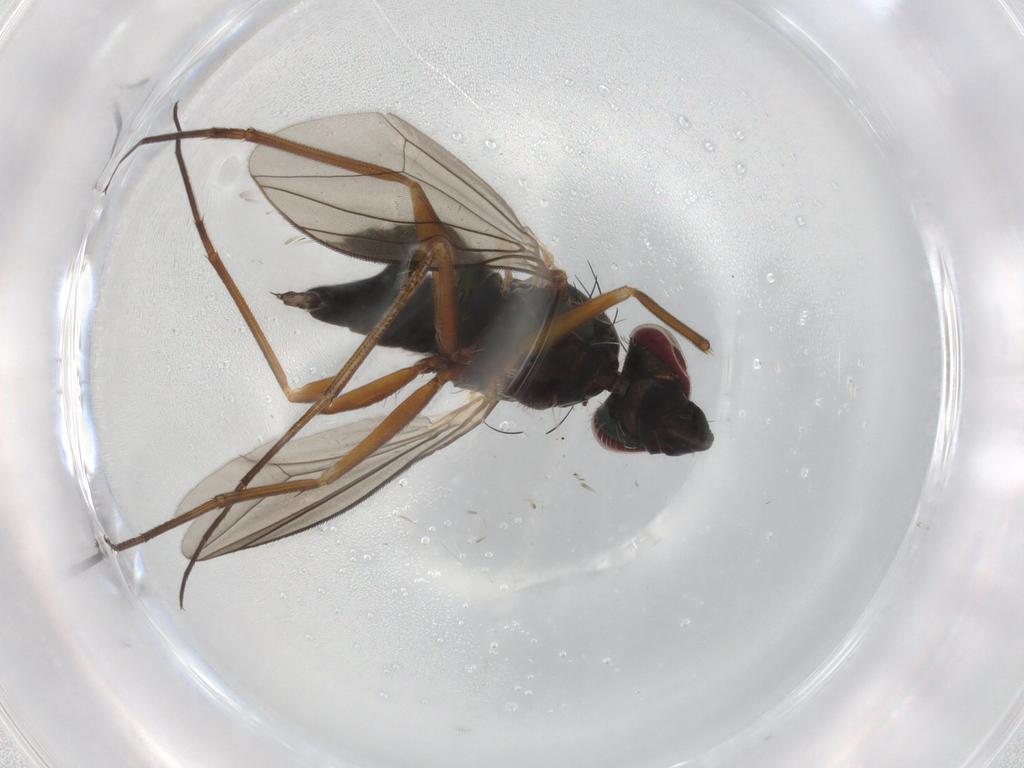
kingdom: Animalia
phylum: Arthropoda
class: Insecta
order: Diptera
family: Dolichopodidae
